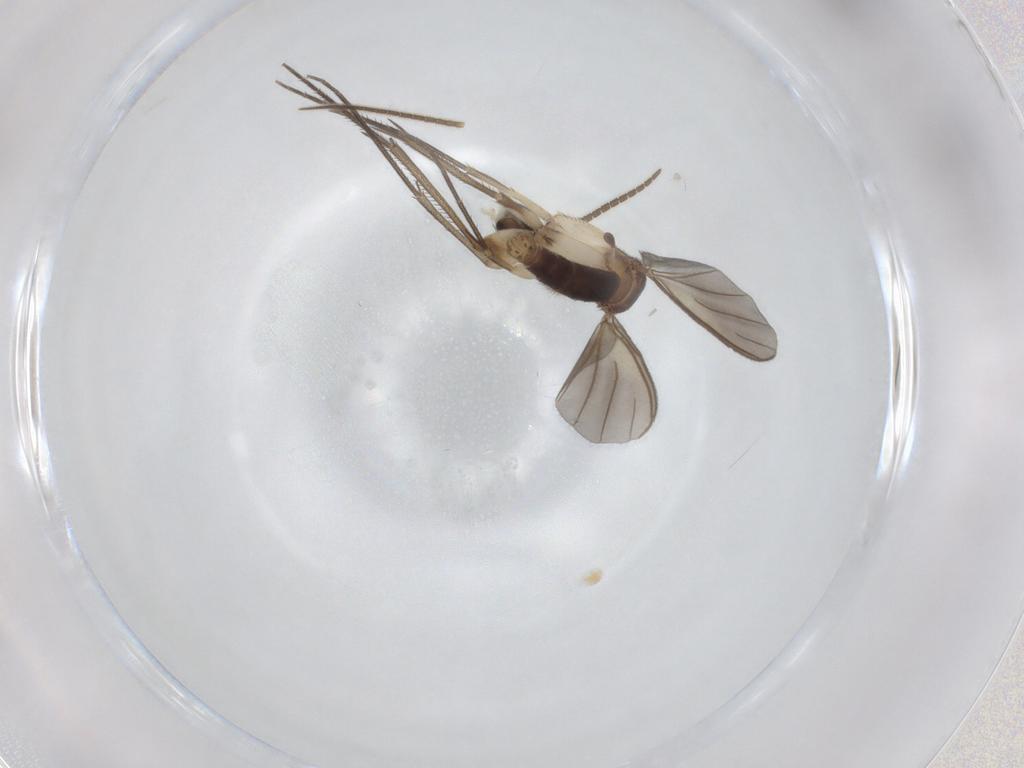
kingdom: Animalia
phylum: Arthropoda
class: Insecta
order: Diptera
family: Mycetophilidae
